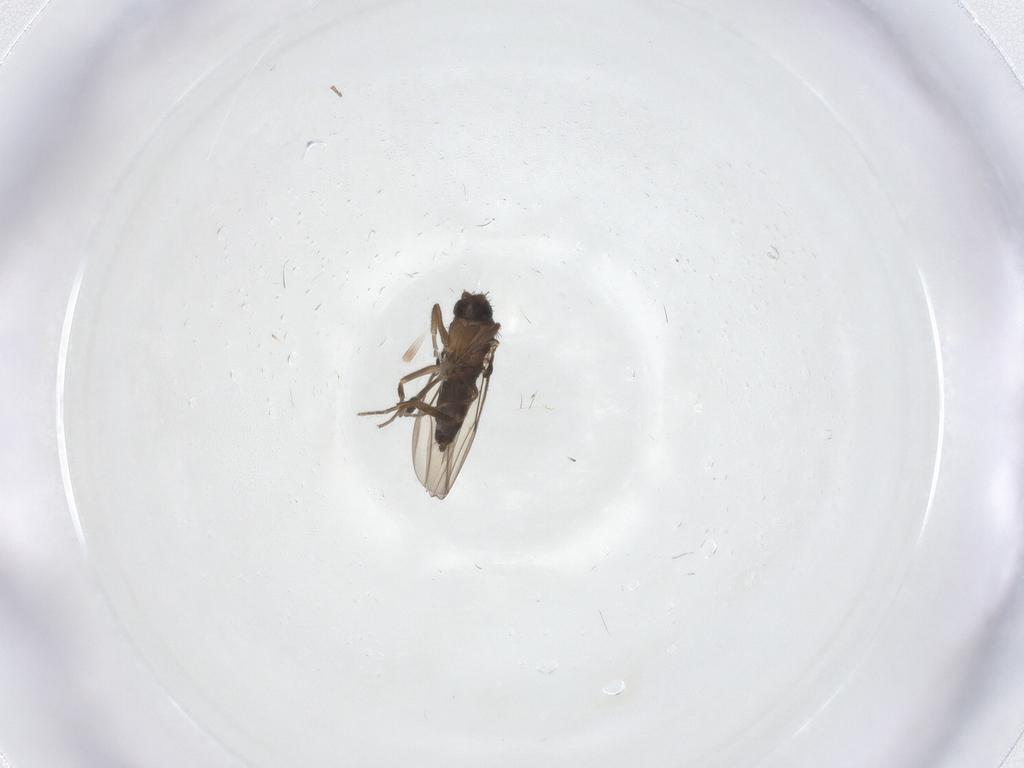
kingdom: Animalia
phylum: Arthropoda
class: Insecta
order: Diptera
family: Phoridae
